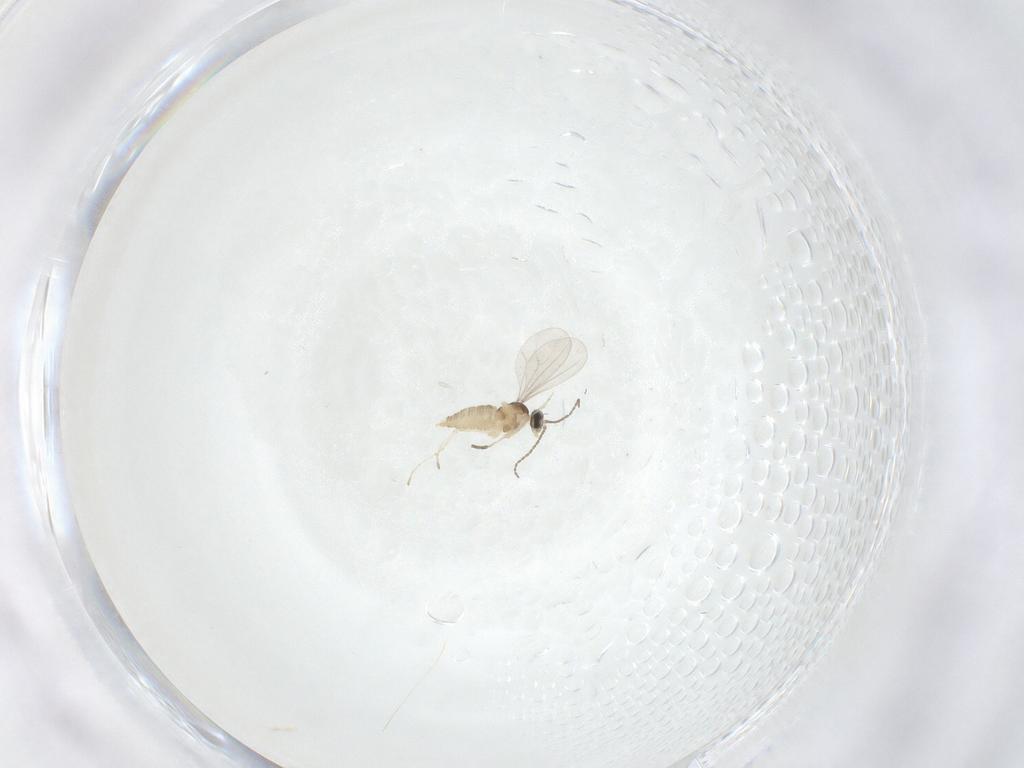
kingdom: Animalia
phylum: Arthropoda
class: Insecta
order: Diptera
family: Cecidomyiidae
